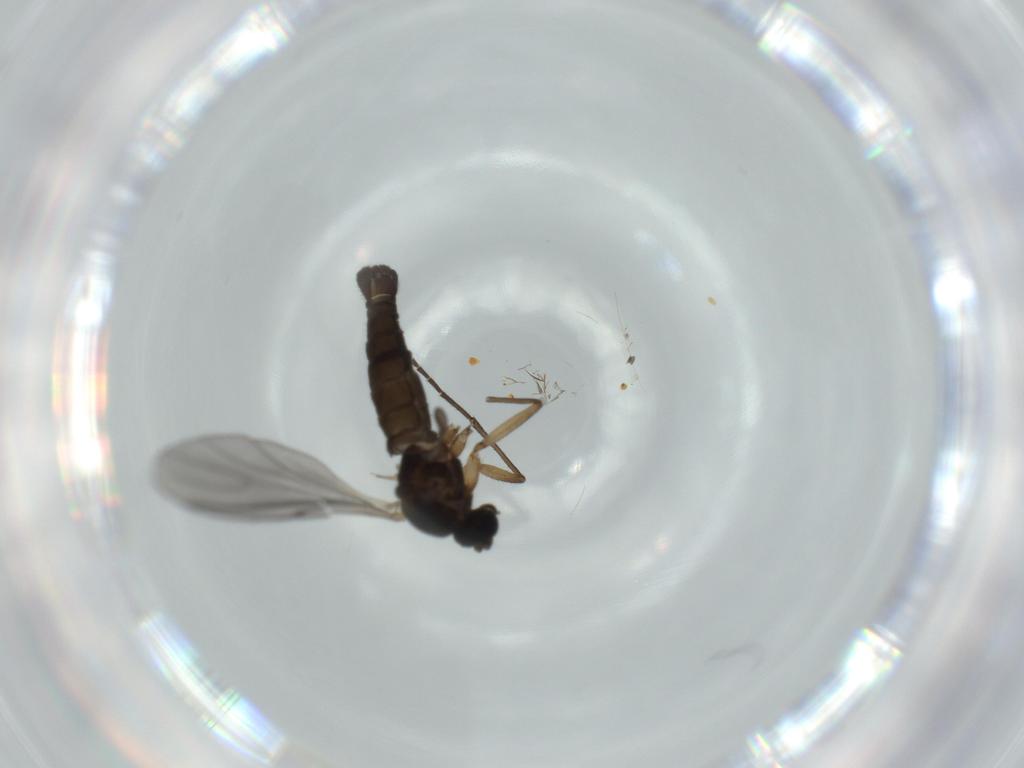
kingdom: Animalia
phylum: Arthropoda
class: Insecta
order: Diptera
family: Sciaridae
